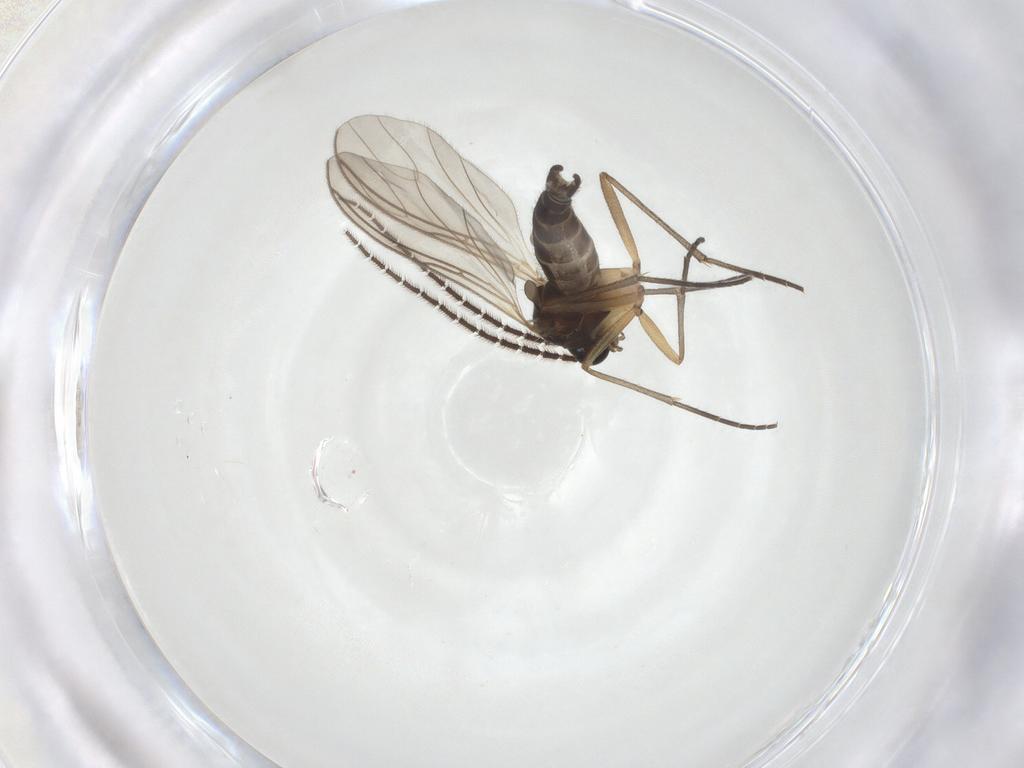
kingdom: Animalia
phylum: Arthropoda
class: Insecta
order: Diptera
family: Sciaridae
